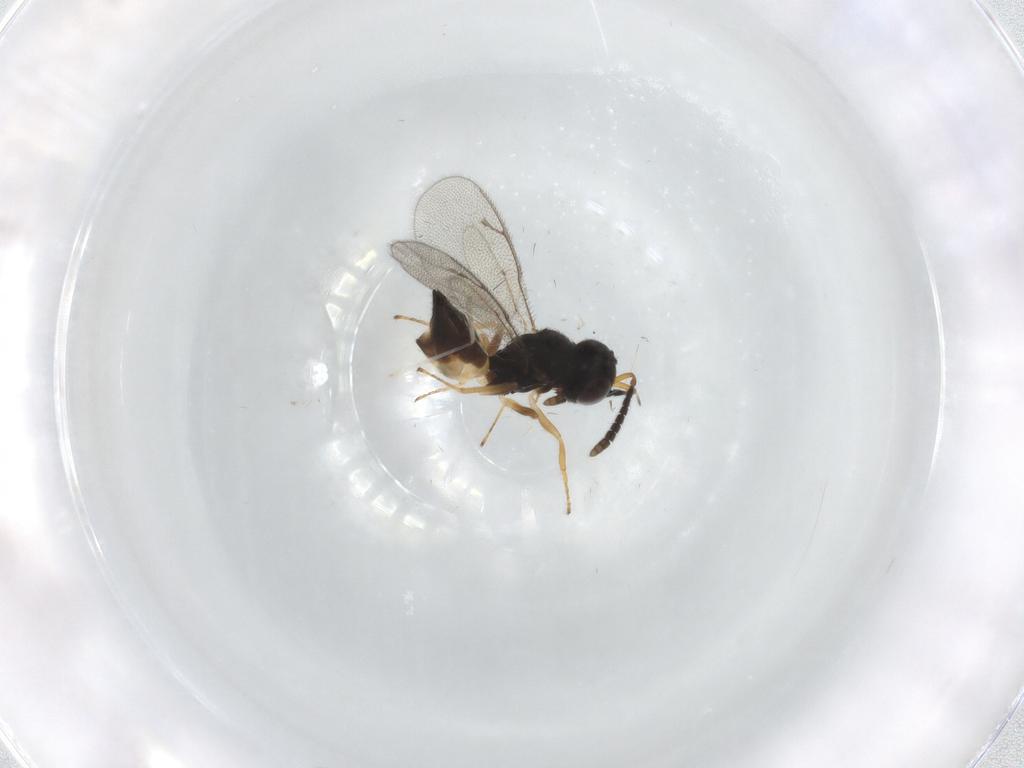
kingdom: Animalia
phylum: Arthropoda
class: Insecta
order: Hymenoptera
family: Pteromalidae
